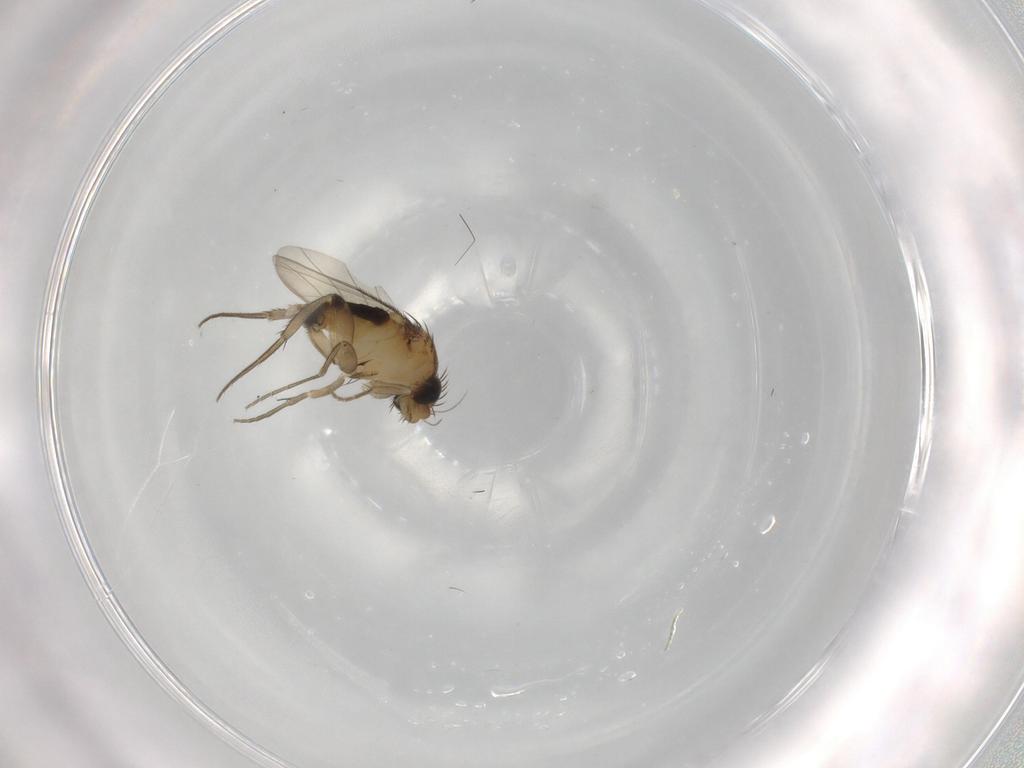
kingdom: Animalia
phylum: Arthropoda
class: Insecta
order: Diptera
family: Phoridae
